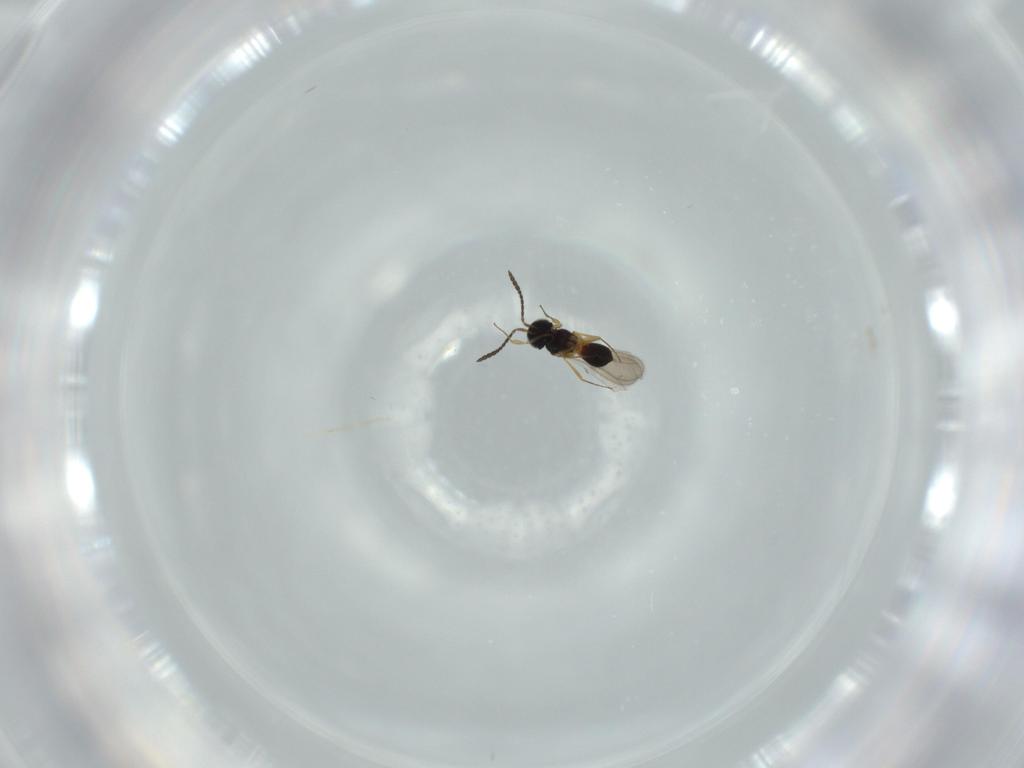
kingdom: Animalia
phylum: Arthropoda
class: Insecta
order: Hymenoptera
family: Scelionidae
